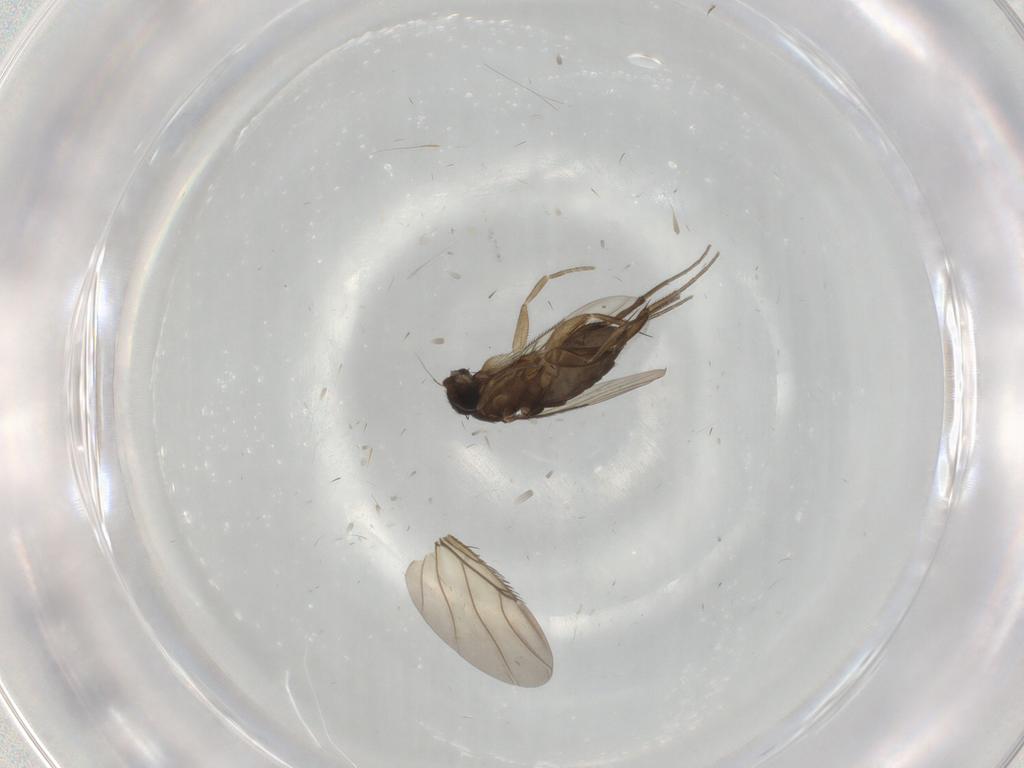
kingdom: Animalia
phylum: Arthropoda
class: Insecta
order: Diptera
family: Phoridae
